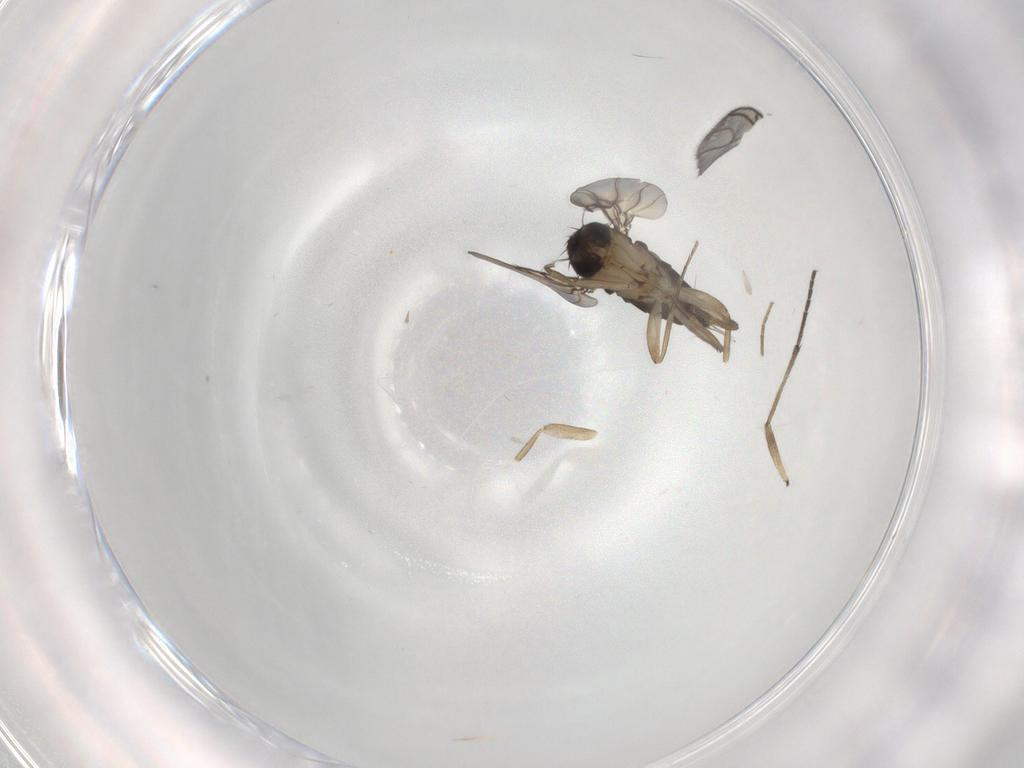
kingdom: Animalia
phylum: Arthropoda
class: Insecta
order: Diptera
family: Phoridae
